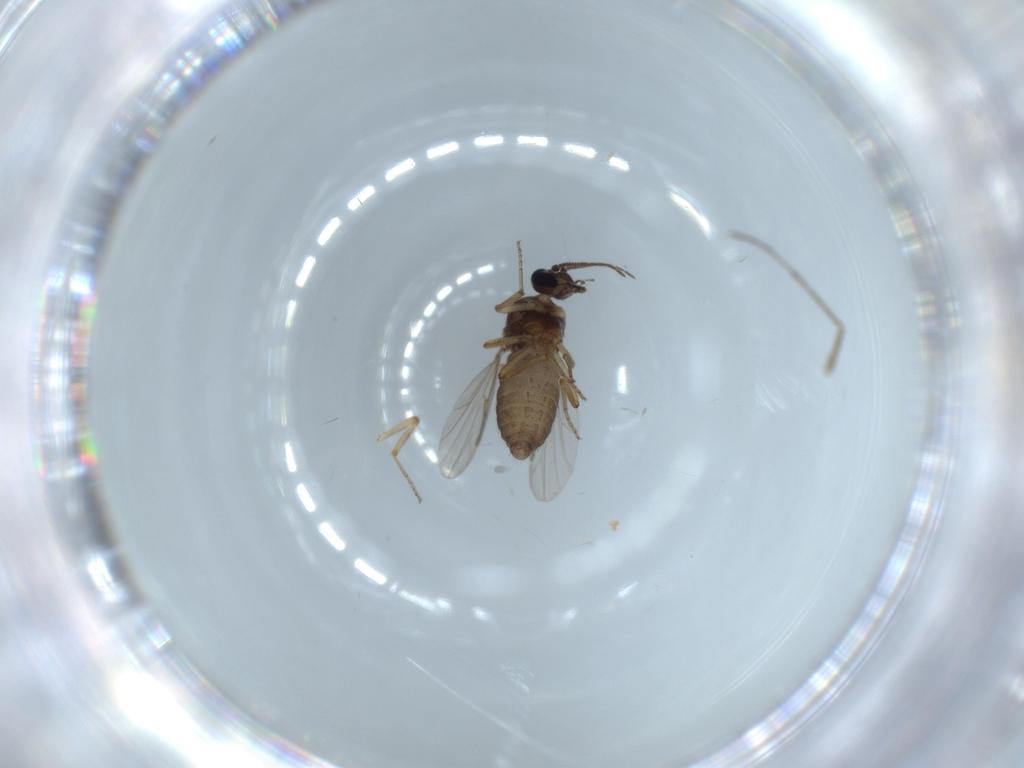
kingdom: Animalia
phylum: Arthropoda
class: Insecta
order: Diptera
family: Ceratopogonidae
